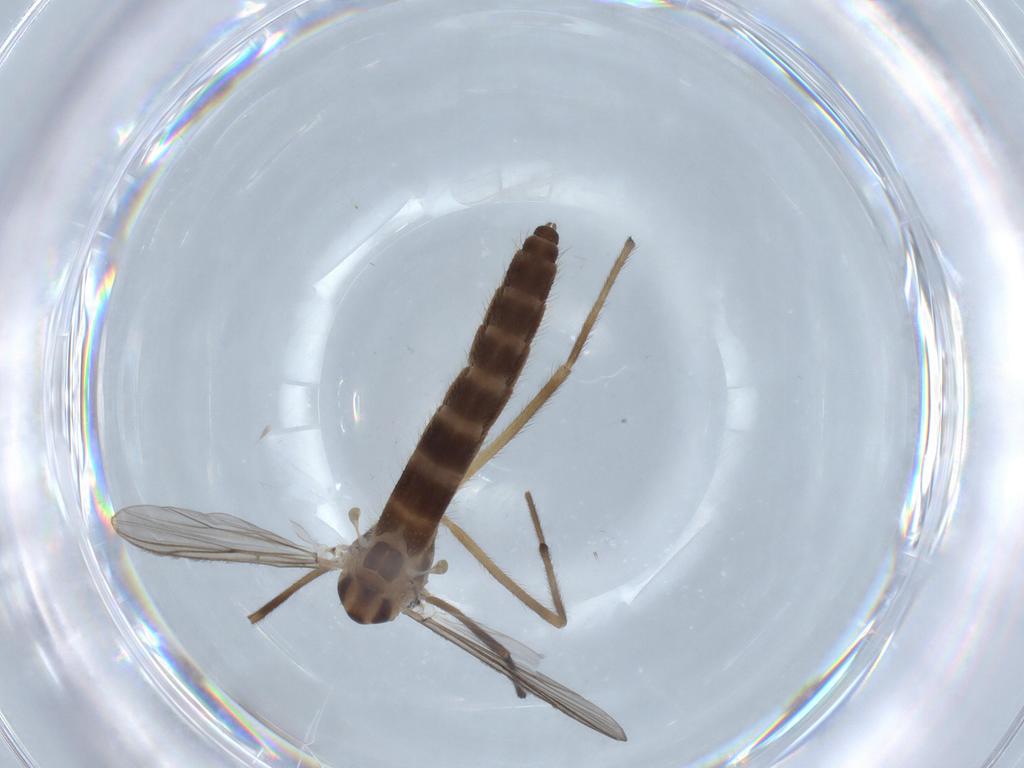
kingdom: Animalia
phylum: Arthropoda
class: Insecta
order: Diptera
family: Chironomidae
